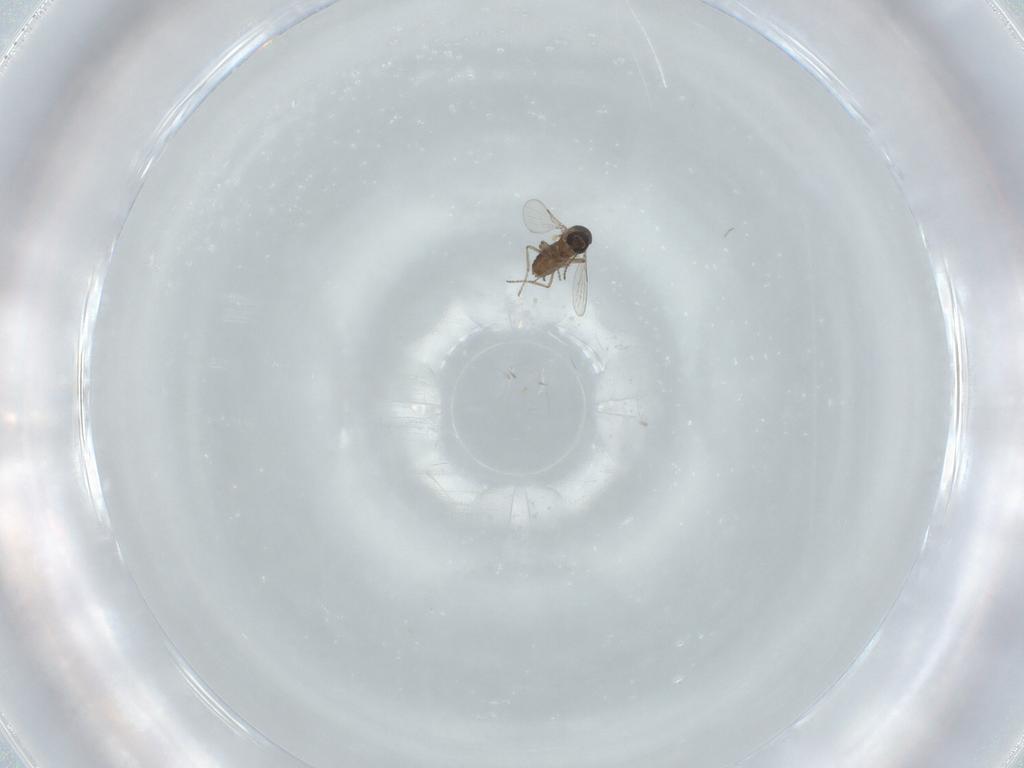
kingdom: Animalia
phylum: Arthropoda
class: Insecta
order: Diptera
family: Ceratopogonidae
